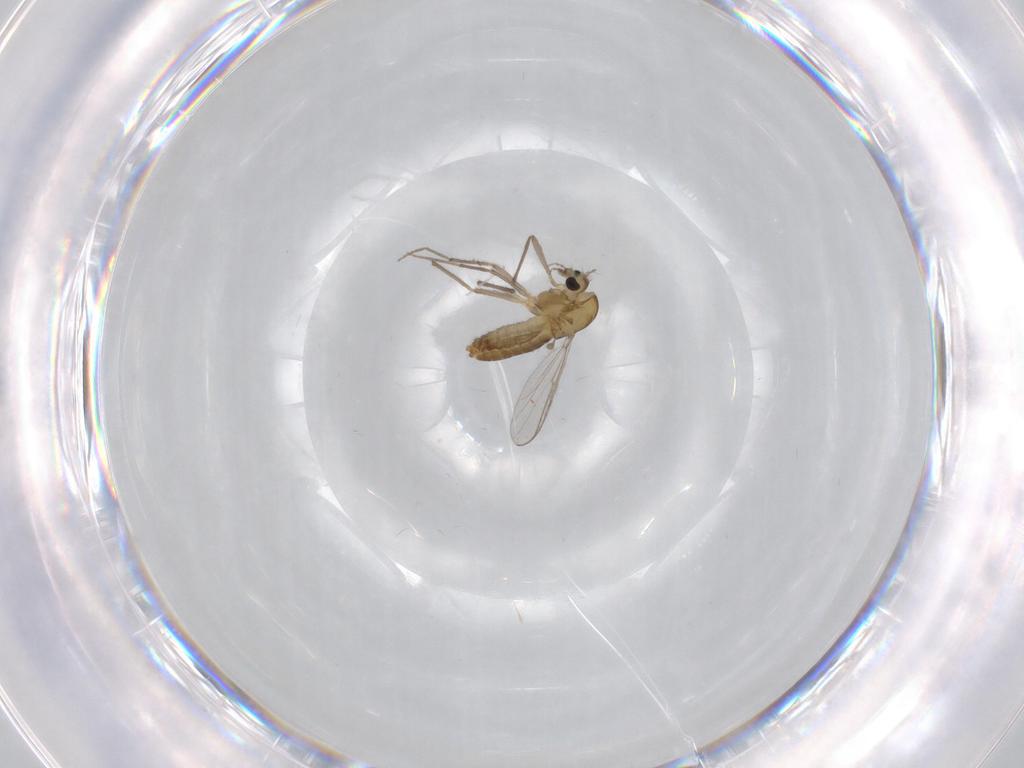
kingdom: Animalia
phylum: Arthropoda
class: Insecta
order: Diptera
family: Chironomidae
